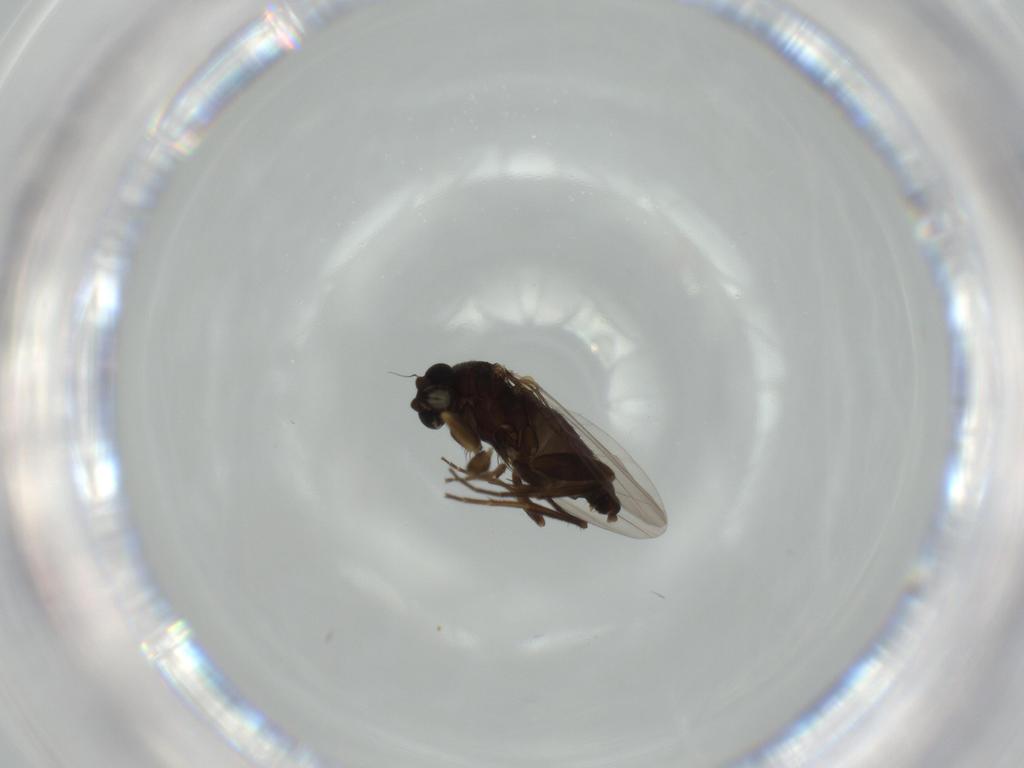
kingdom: Animalia
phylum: Arthropoda
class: Insecta
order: Diptera
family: Phoridae
